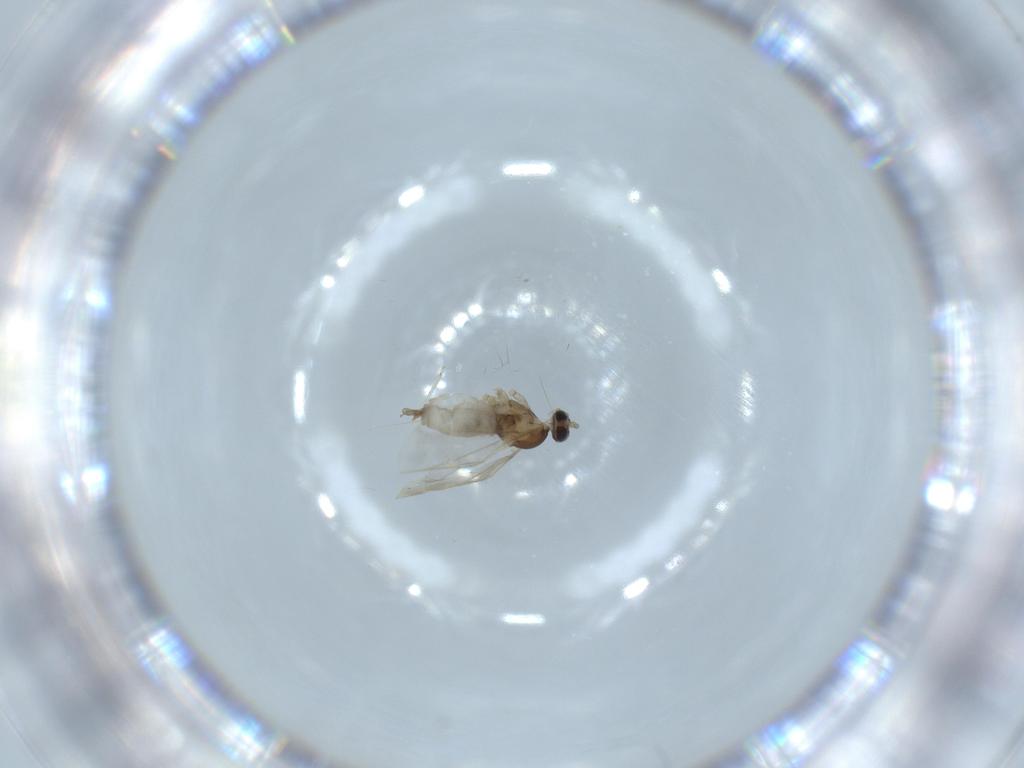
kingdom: Animalia
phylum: Arthropoda
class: Insecta
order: Diptera
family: Cecidomyiidae
